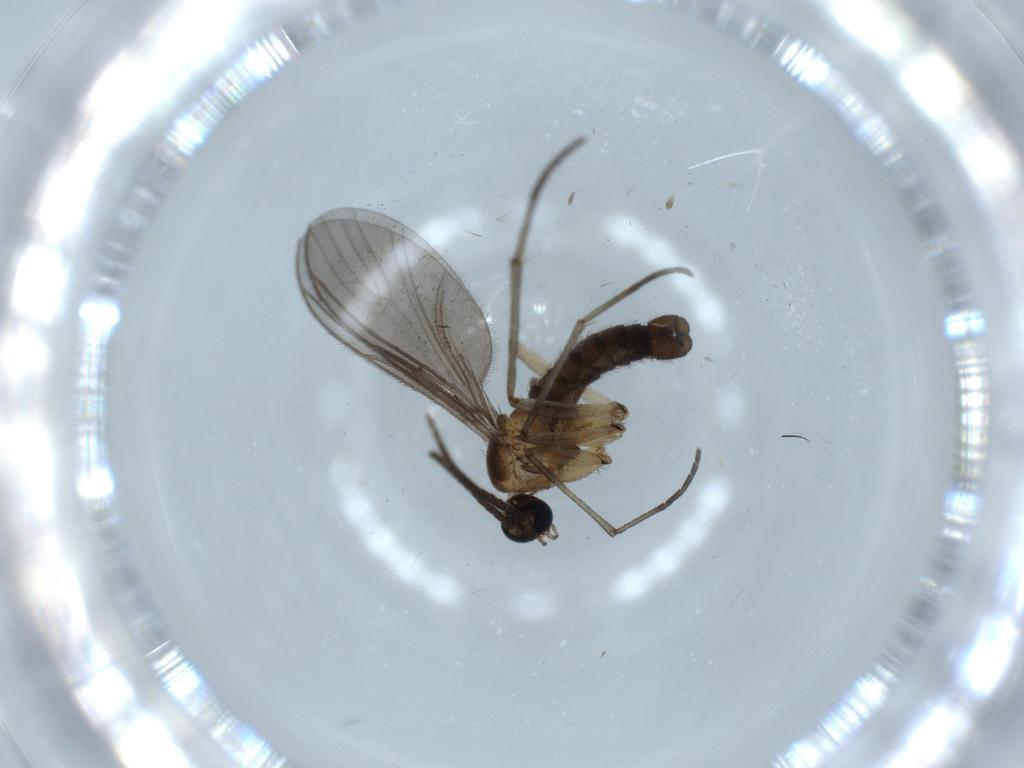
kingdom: Animalia
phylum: Arthropoda
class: Insecta
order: Diptera
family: Sciaridae
